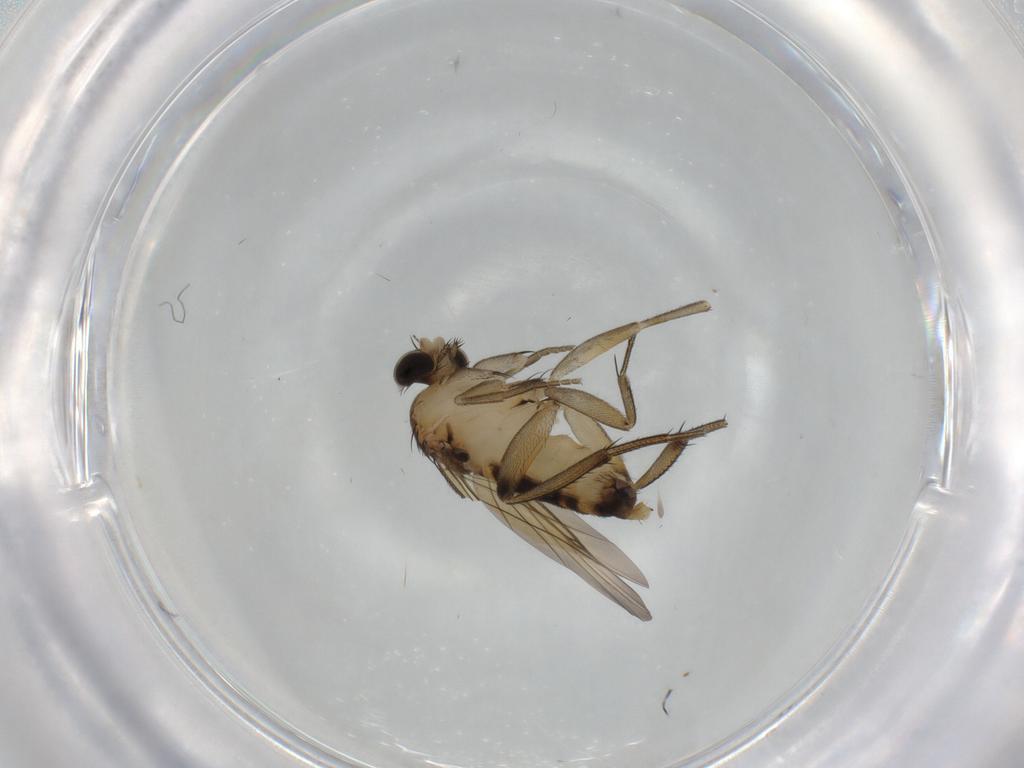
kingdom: Animalia
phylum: Arthropoda
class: Insecta
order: Diptera
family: Phoridae
